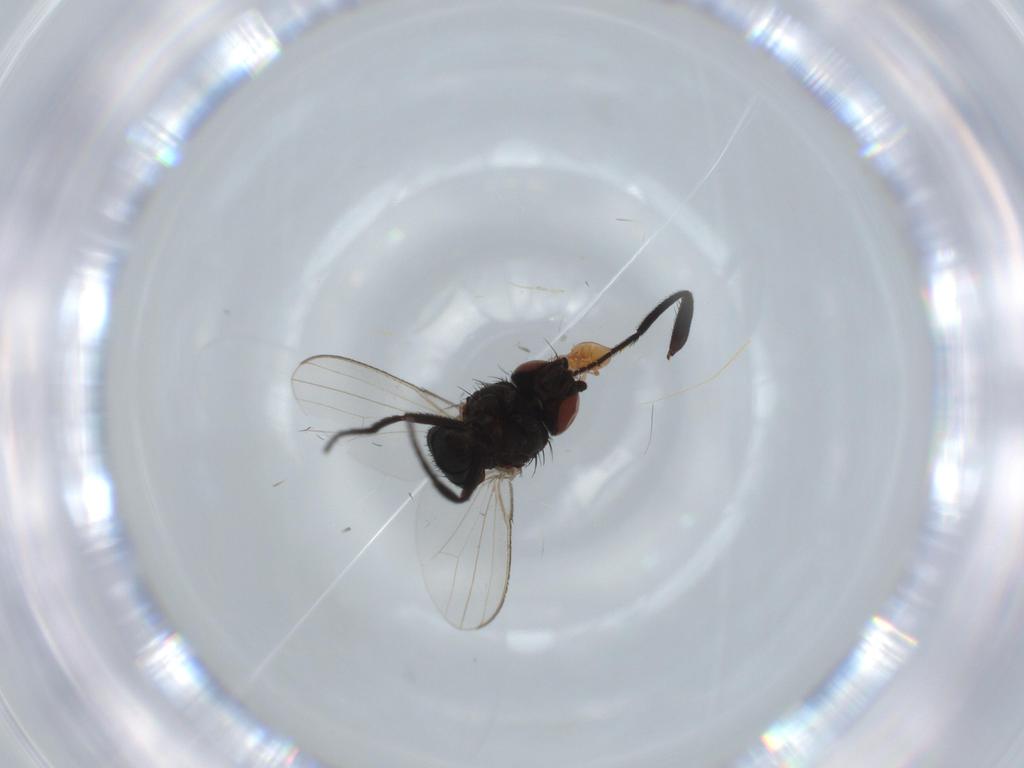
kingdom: Animalia
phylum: Arthropoda
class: Insecta
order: Diptera
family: Milichiidae
